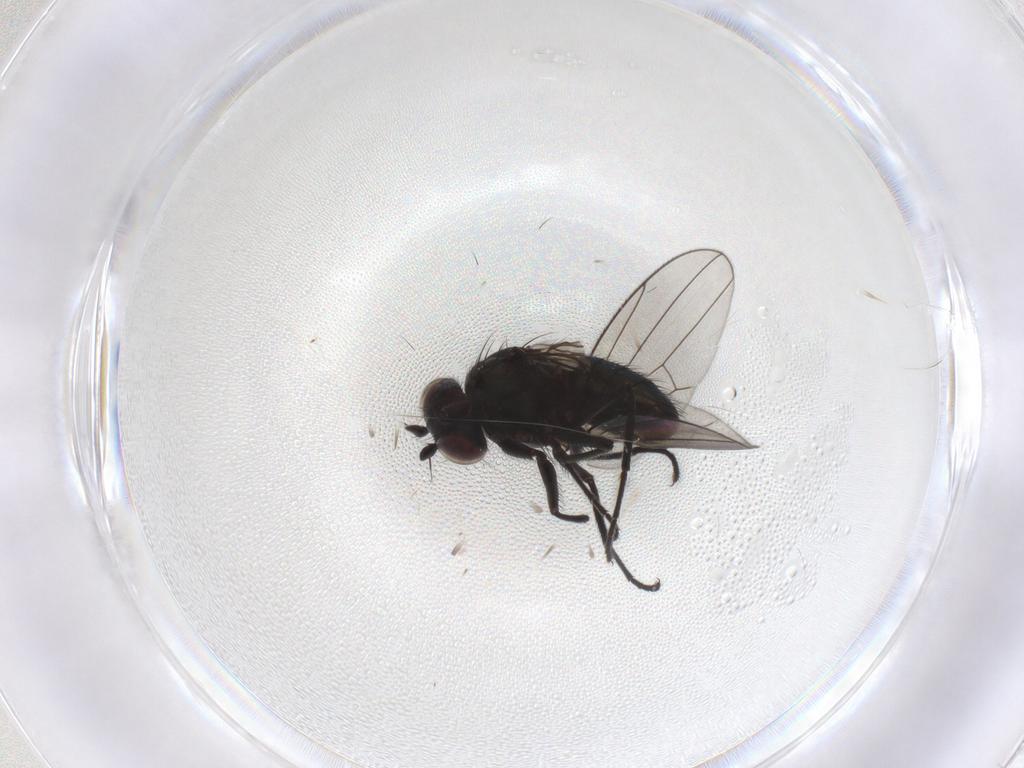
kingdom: Animalia
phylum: Arthropoda
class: Insecta
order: Diptera
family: Ephydridae
